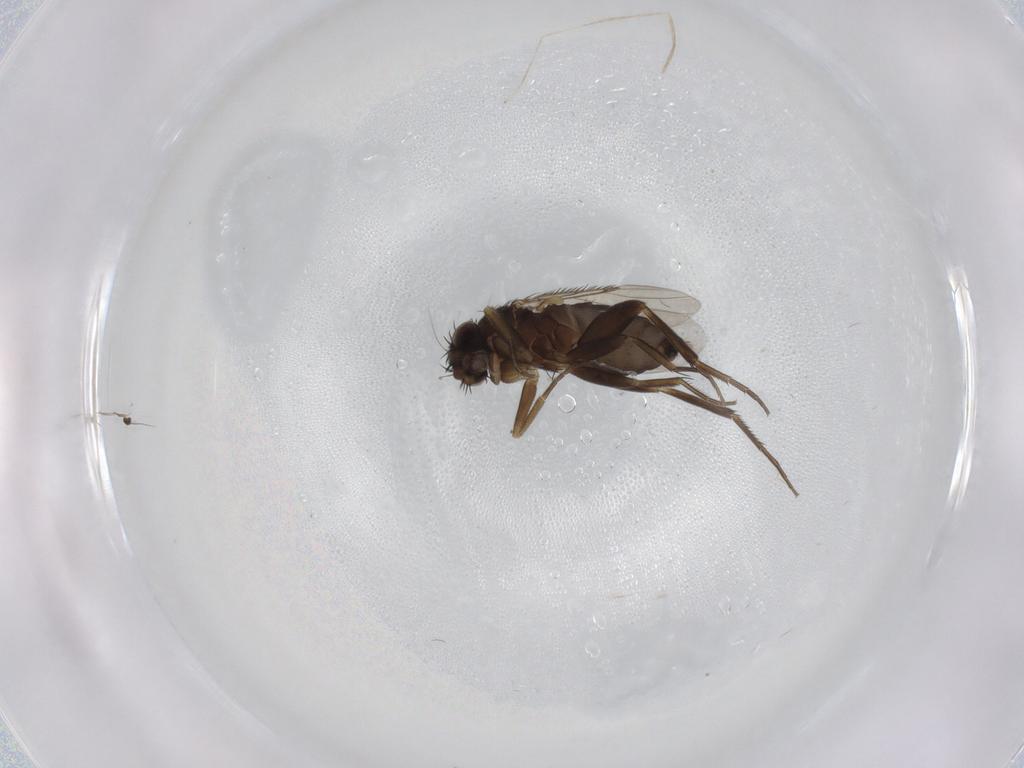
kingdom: Animalia
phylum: Arthropoda
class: Insecta
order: Diptera
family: Phoridae
